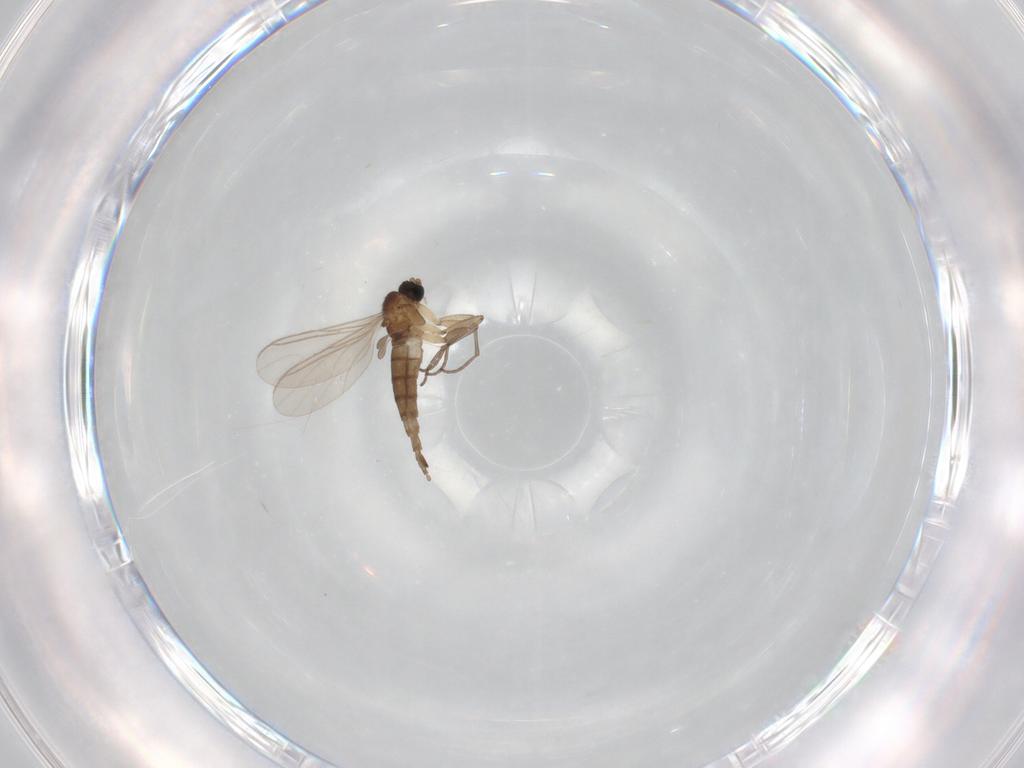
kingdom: Animalia
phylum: Arthropoda
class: Insecta
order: Diptera
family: Sciaridae
